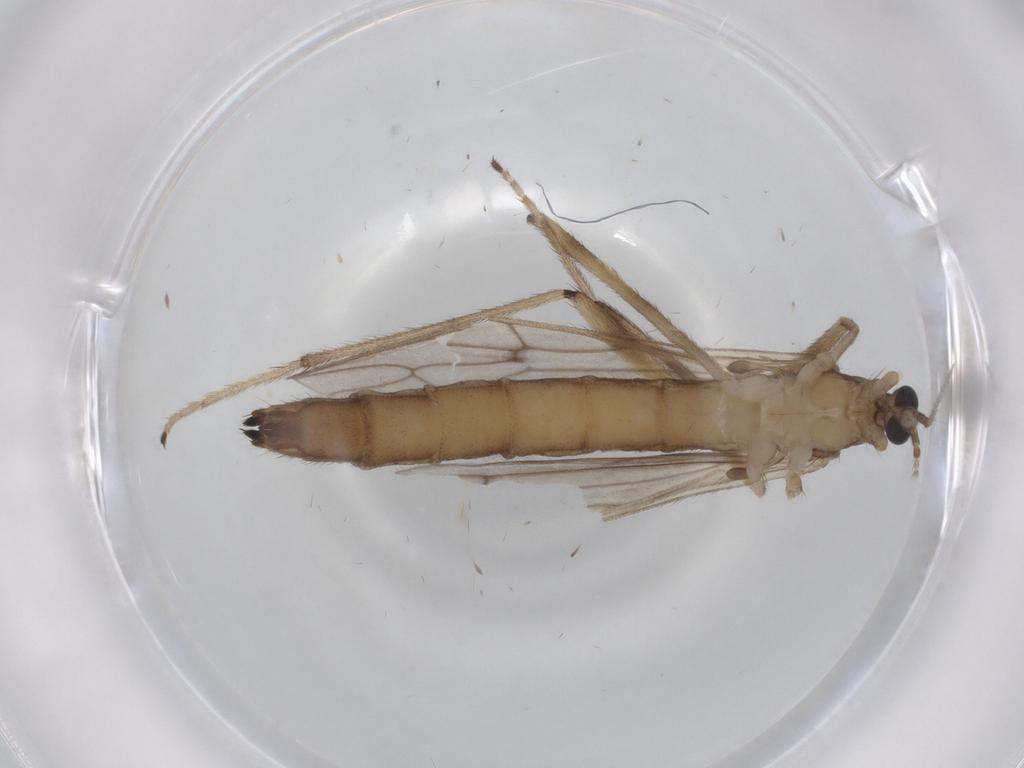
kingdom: Animalia
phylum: Arthropoda
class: Insecta
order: Diptera
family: Limoniidae
